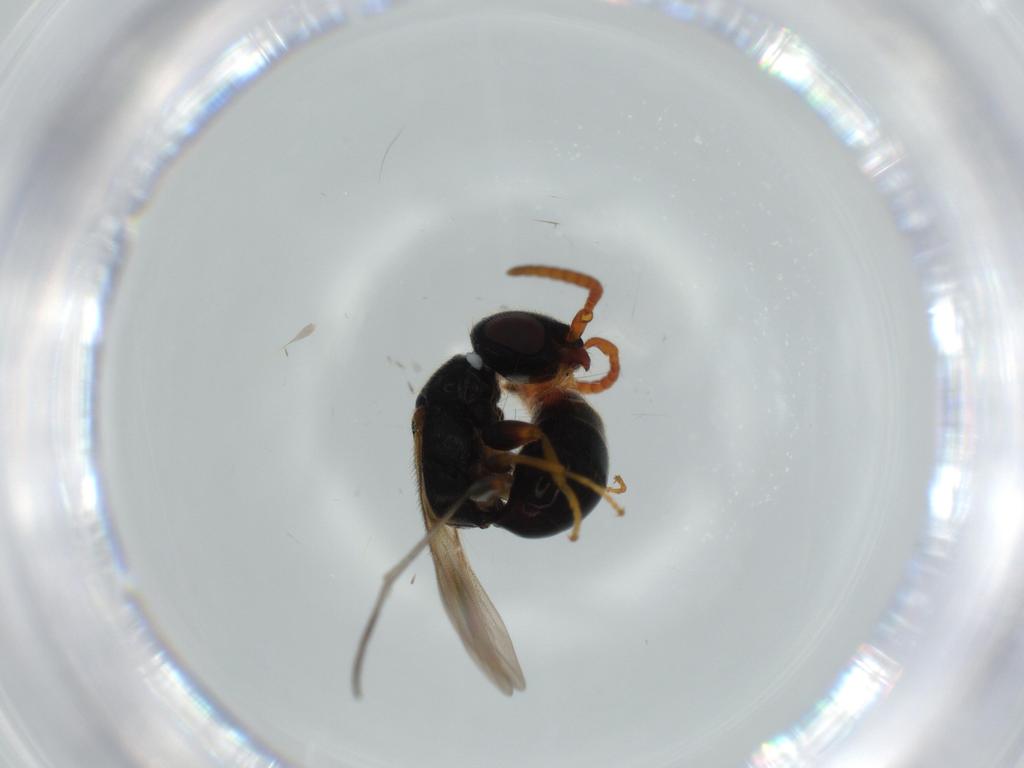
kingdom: Animalia
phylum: Arthropoda
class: Insecta
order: Hymenoptera
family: Bethylidae
